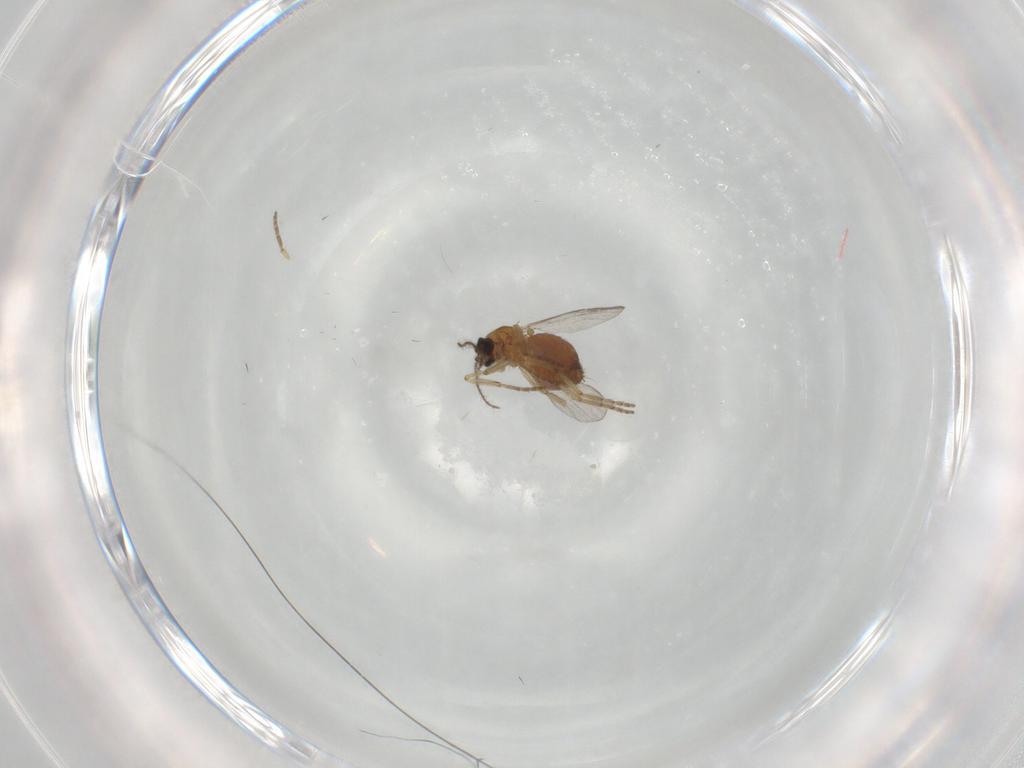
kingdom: Animalia
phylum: Arthropoda
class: Insecta
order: Diptera
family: Ceratopogonidae
